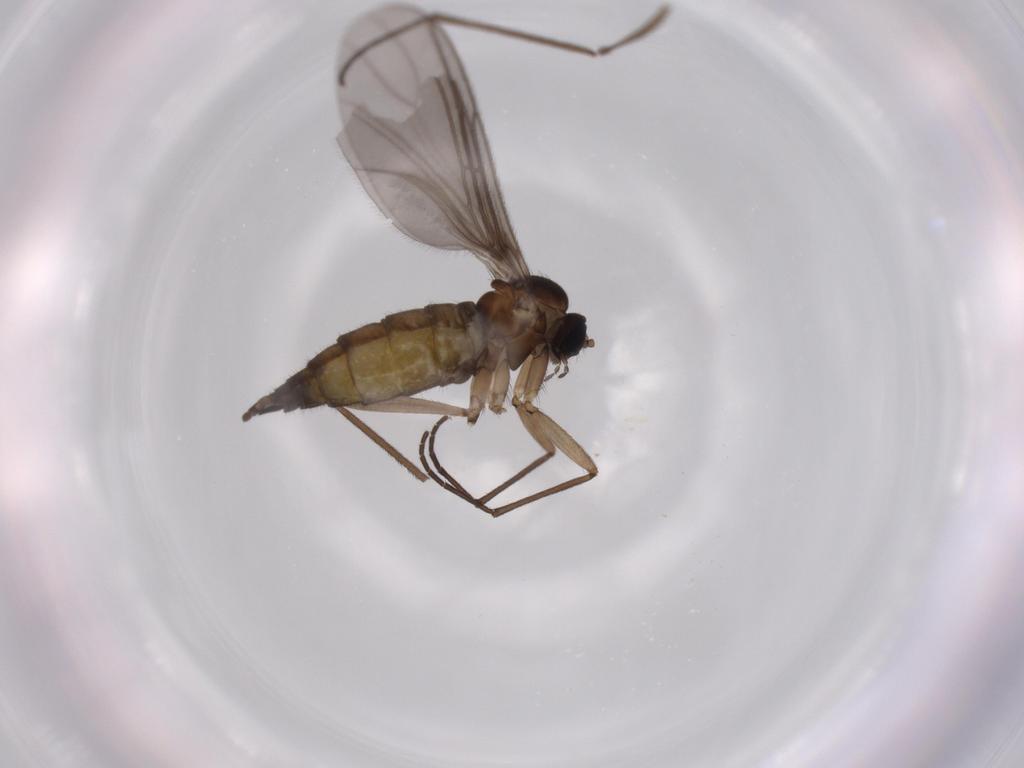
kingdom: Animalia
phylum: Arthropoda
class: Insecta
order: Diptera
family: Sciaridae
